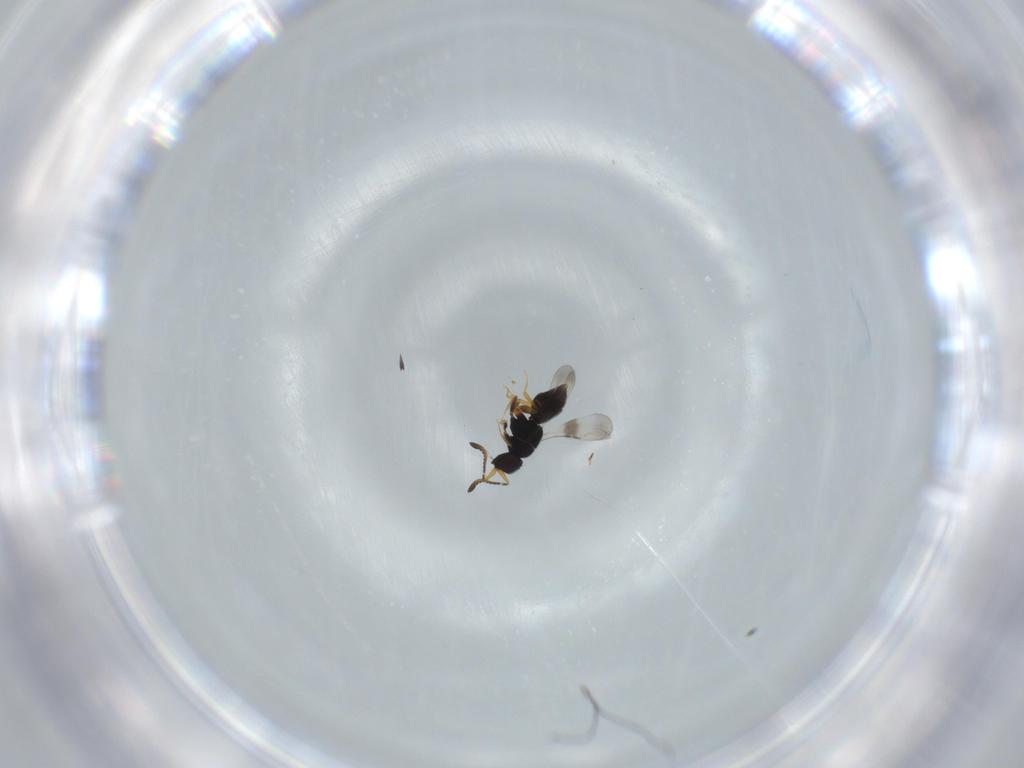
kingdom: Animalia
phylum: Arthropoda
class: Insecta
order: Hymenoptera
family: Ceraphronidae
